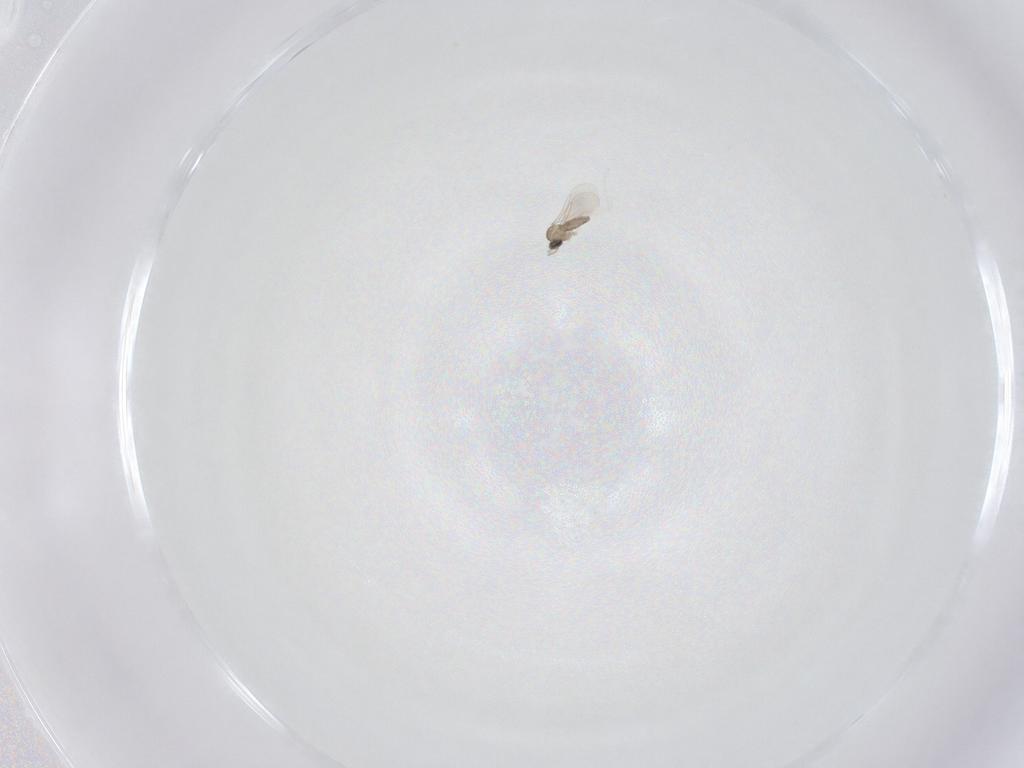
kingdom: Animalia
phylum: Arthropoda
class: Insecta
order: Diptera
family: Cecidomyiidae
